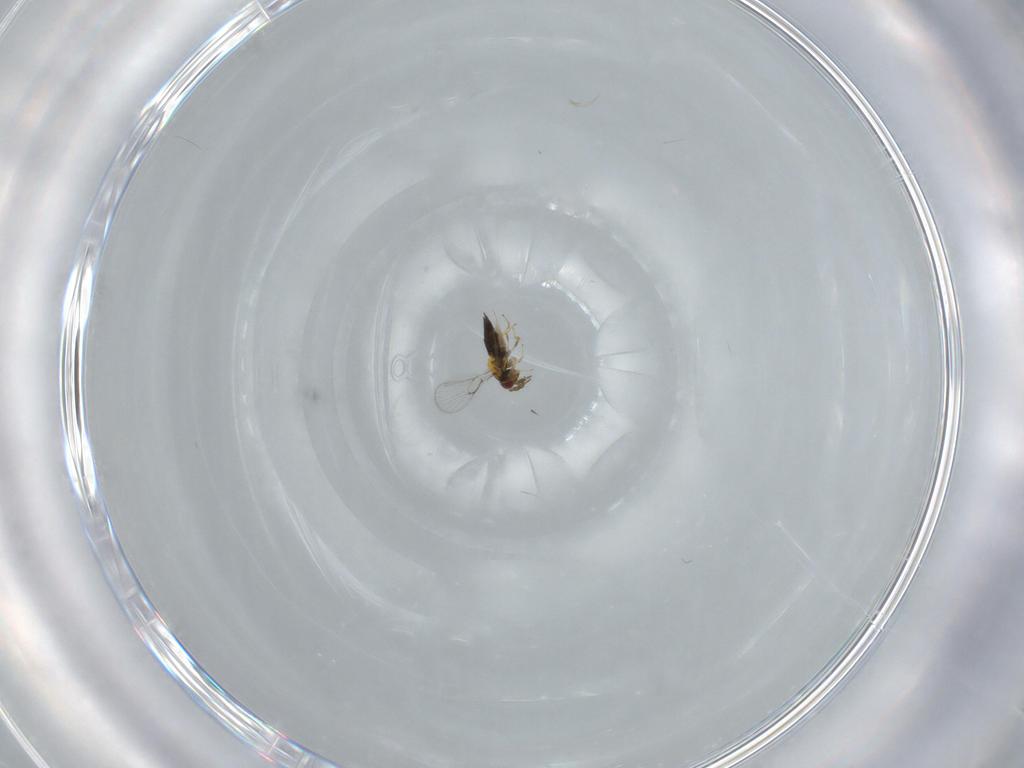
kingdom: Animalia
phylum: Arthropoda
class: Insecta
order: Hymenoptera
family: Trichogrammatidae
